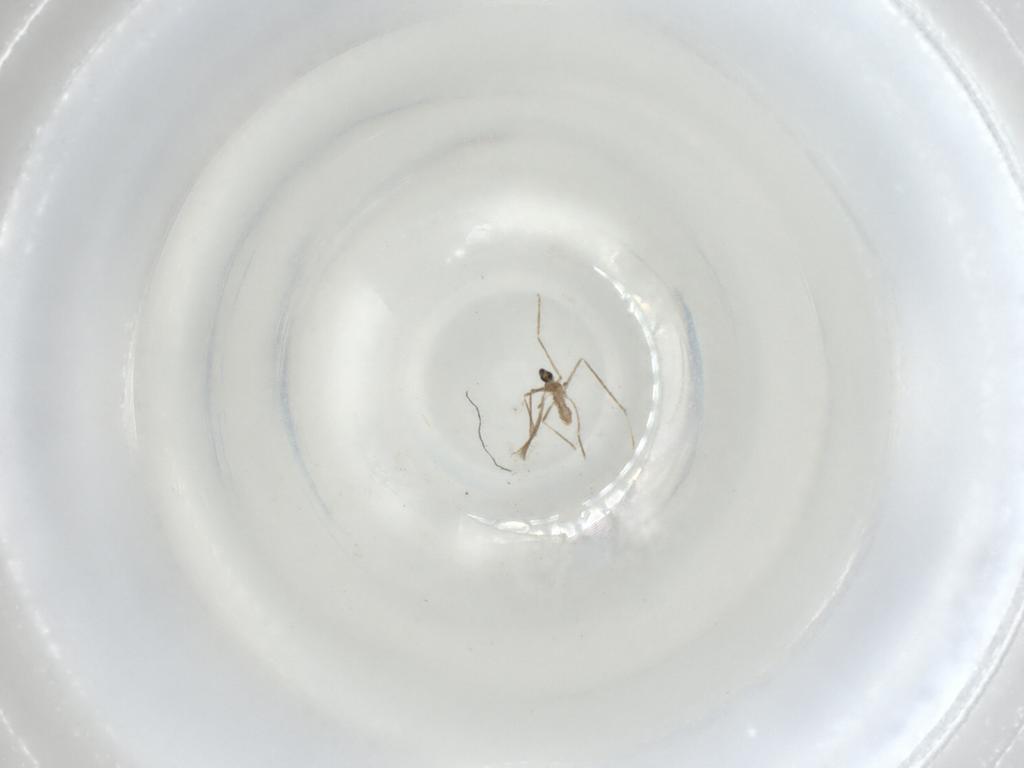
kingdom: Animalia
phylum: Arthropoda
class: Insecta
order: Diptera
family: Cecidomyiidae
